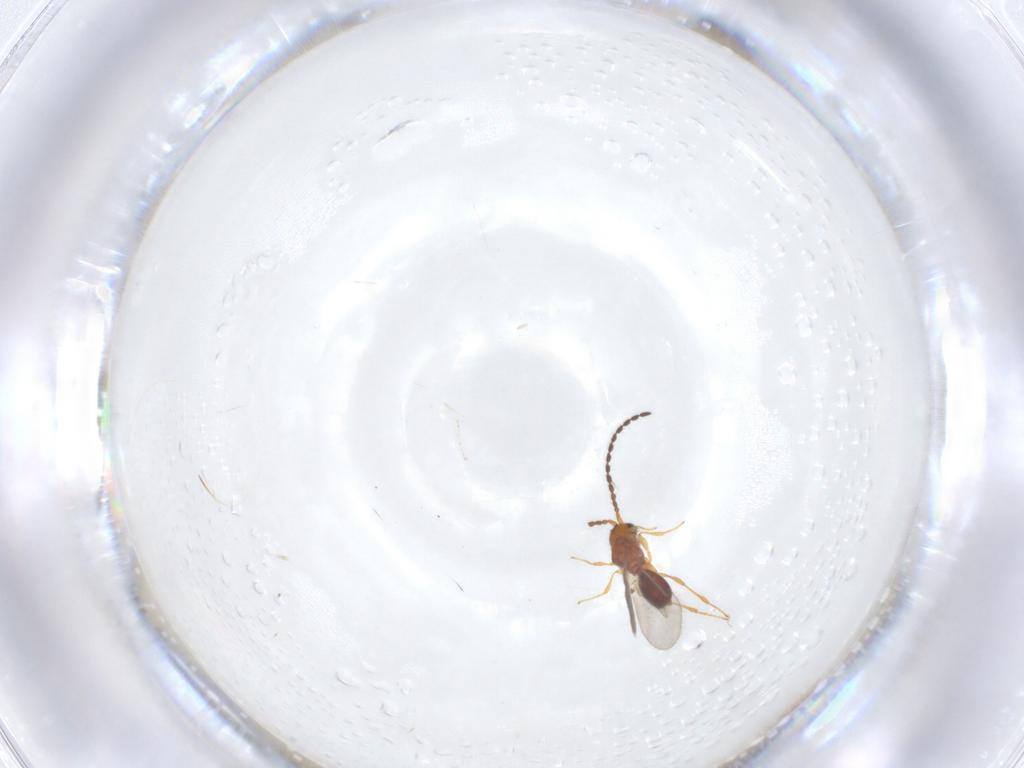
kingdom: Animalia
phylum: Arthropoda
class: Insecta
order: Hymenoptera
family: Diapriidae
